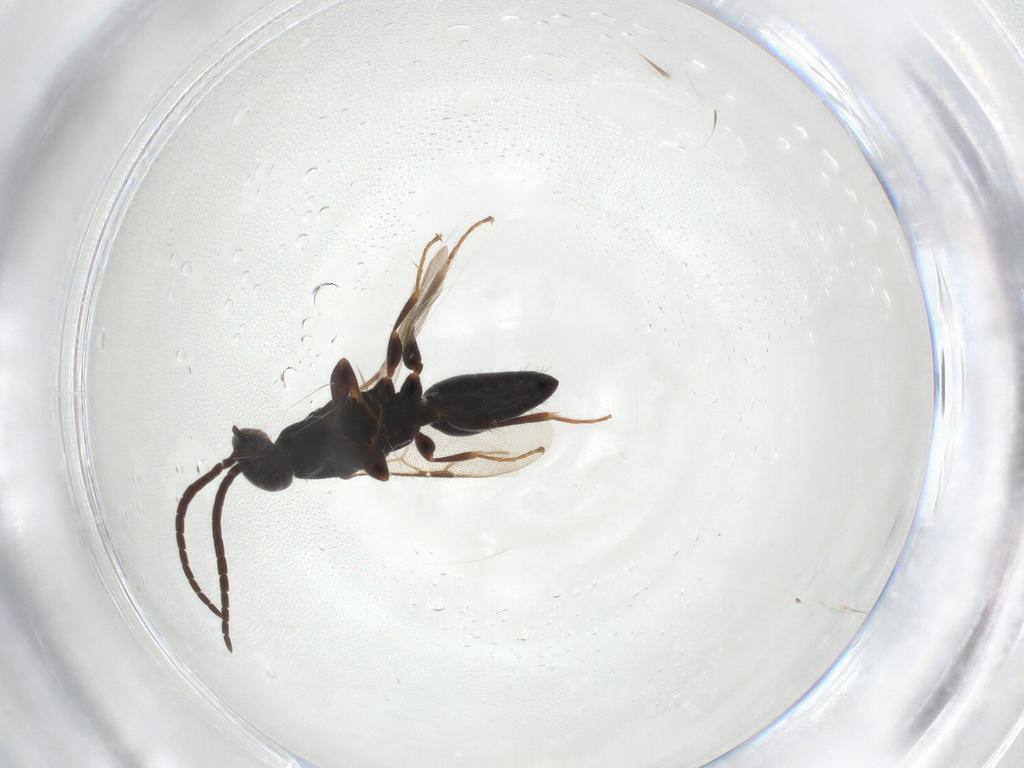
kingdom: Animalia
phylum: Arthropoda
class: Insecta
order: Hymenoptera
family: Bethylidae
